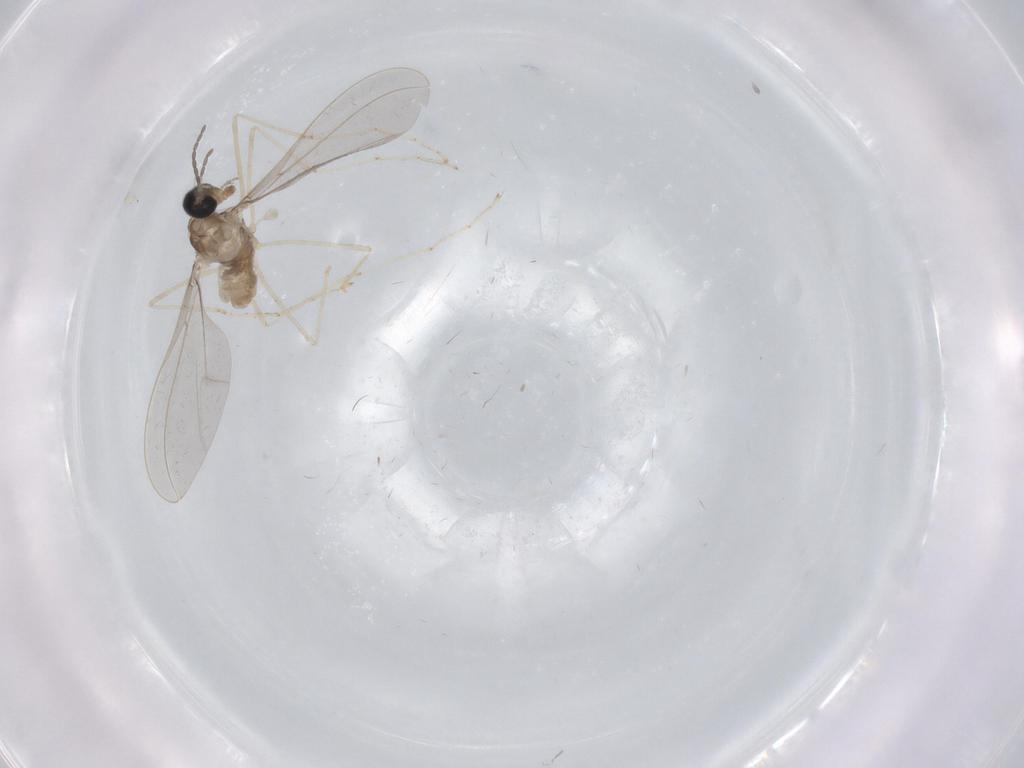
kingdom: Animalia
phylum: Arthropoda
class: Insecta
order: Diptera
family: Cecidomyiidae
